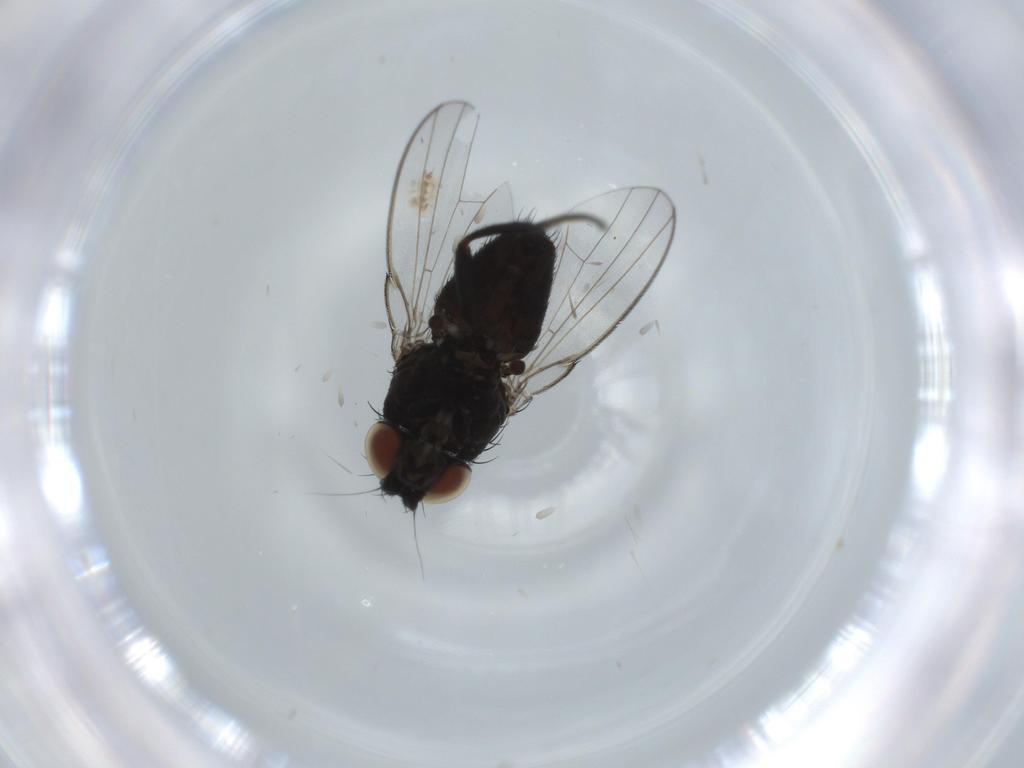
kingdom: Animalia
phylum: Arthropoda
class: Insecta
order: Diptera
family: Milichiidae
